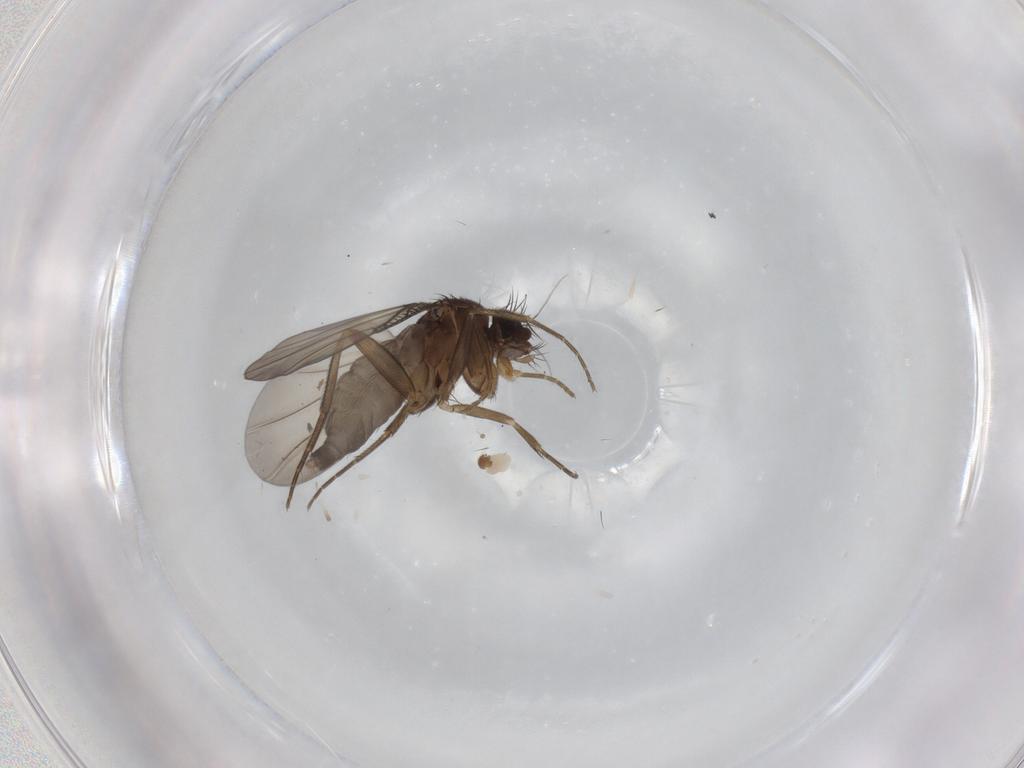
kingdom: Animalia
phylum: Arthropoda
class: Insecta
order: Diptera
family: Phoridae
